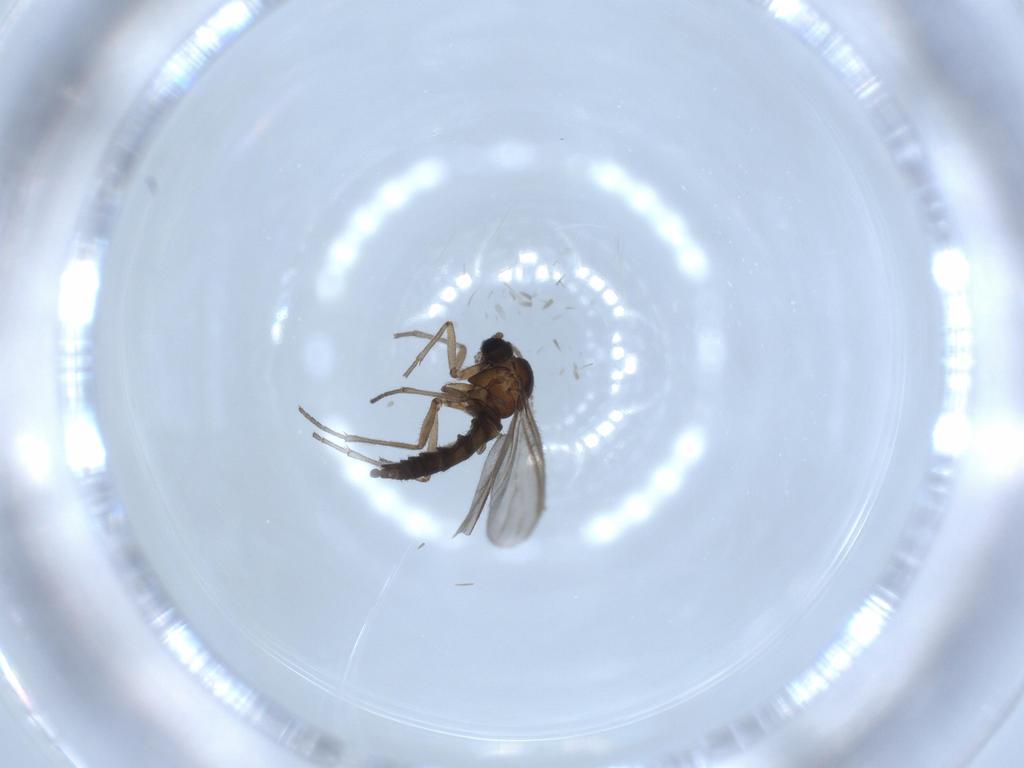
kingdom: Animalia
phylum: Arthropoda
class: Insecta
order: Diptera
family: Sciaridae
